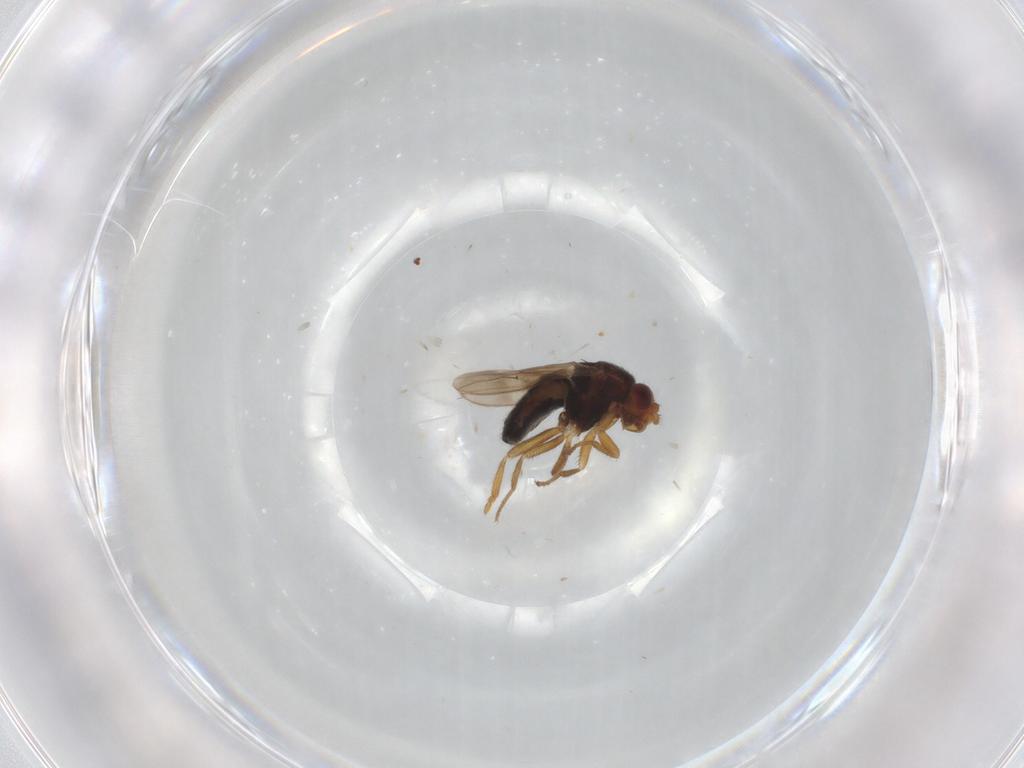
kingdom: Animalia
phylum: Arthropoda
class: Insecta
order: Diptera
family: Sphaeroceridae
